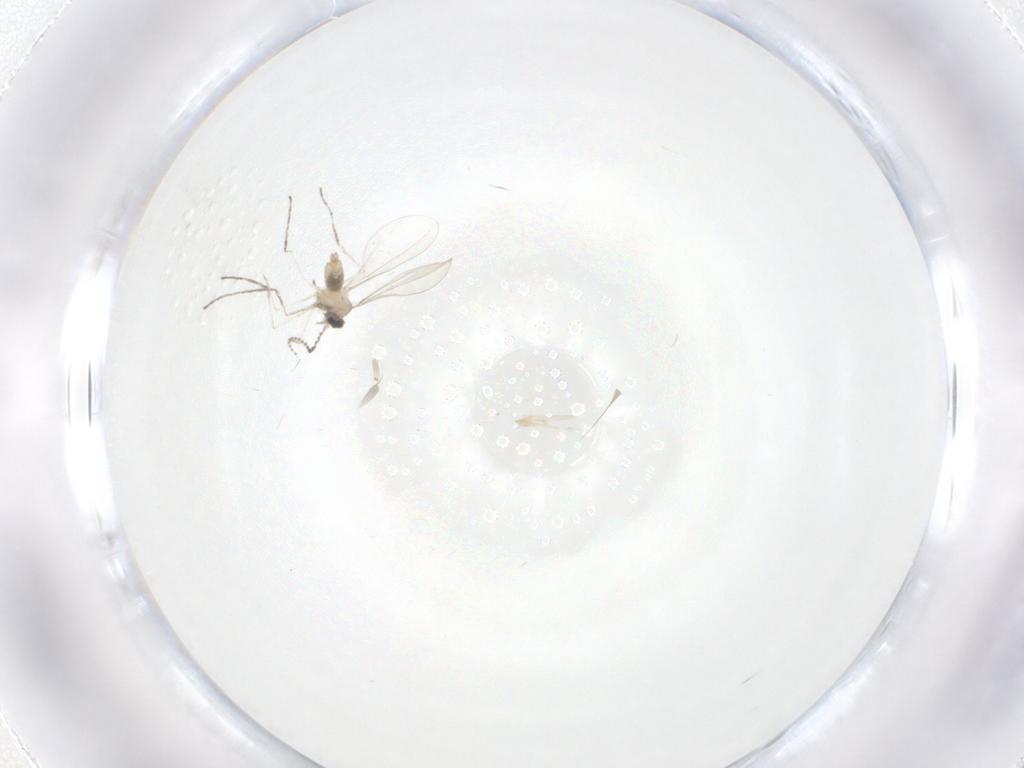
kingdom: Animalia
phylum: Arthropoda
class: Insecta
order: Diptera
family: Cecidomyiidae
